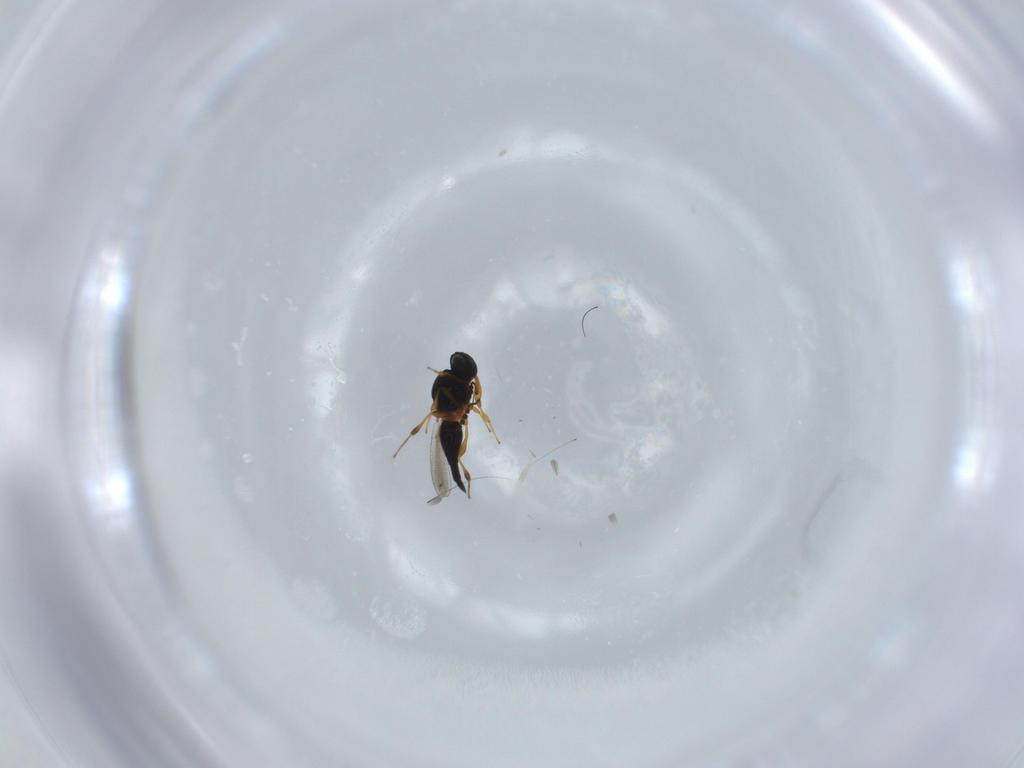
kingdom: Animalia
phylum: Arthropoda
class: Insecta
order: Hymenoptera
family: Platygastridae
